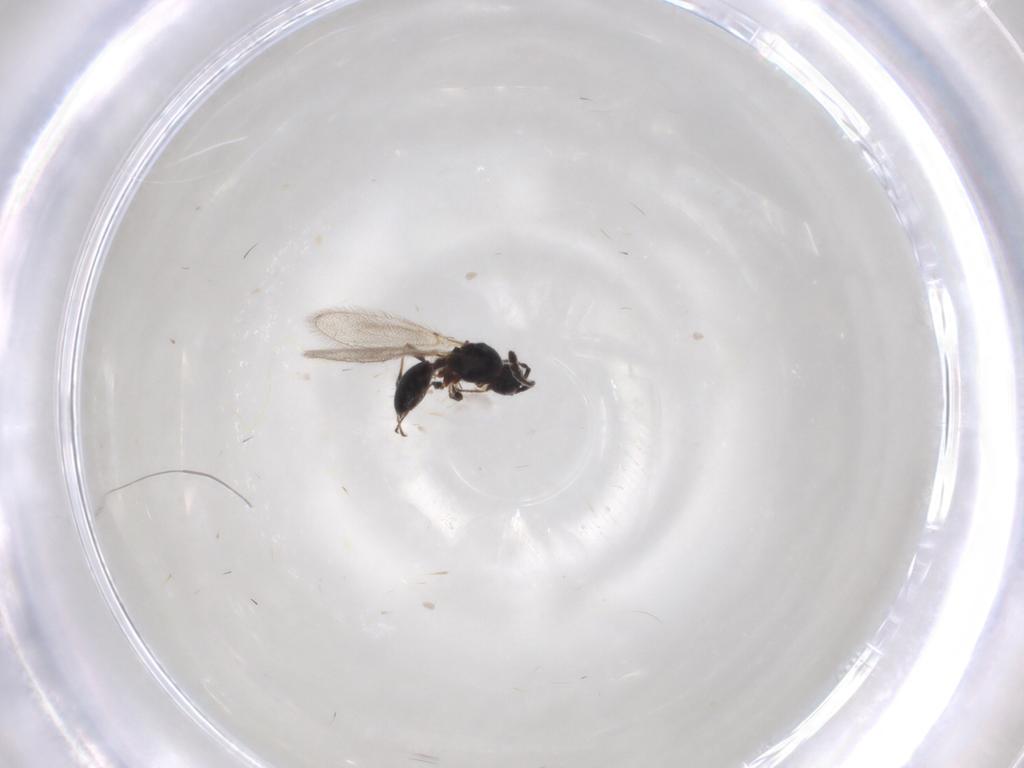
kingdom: Animalia
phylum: Arthropoda
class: Insecta
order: Hymenoptera
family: Diapriidae
